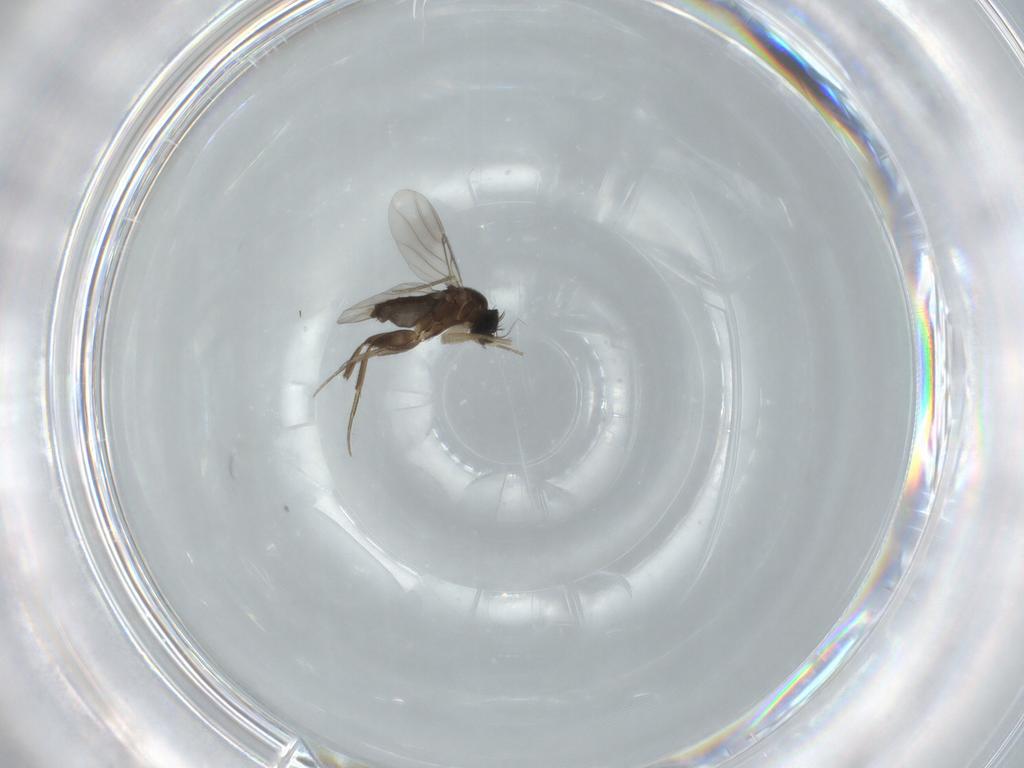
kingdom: Animalia
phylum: Arthropoda
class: Insecta
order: Diptera
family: Phoridae
